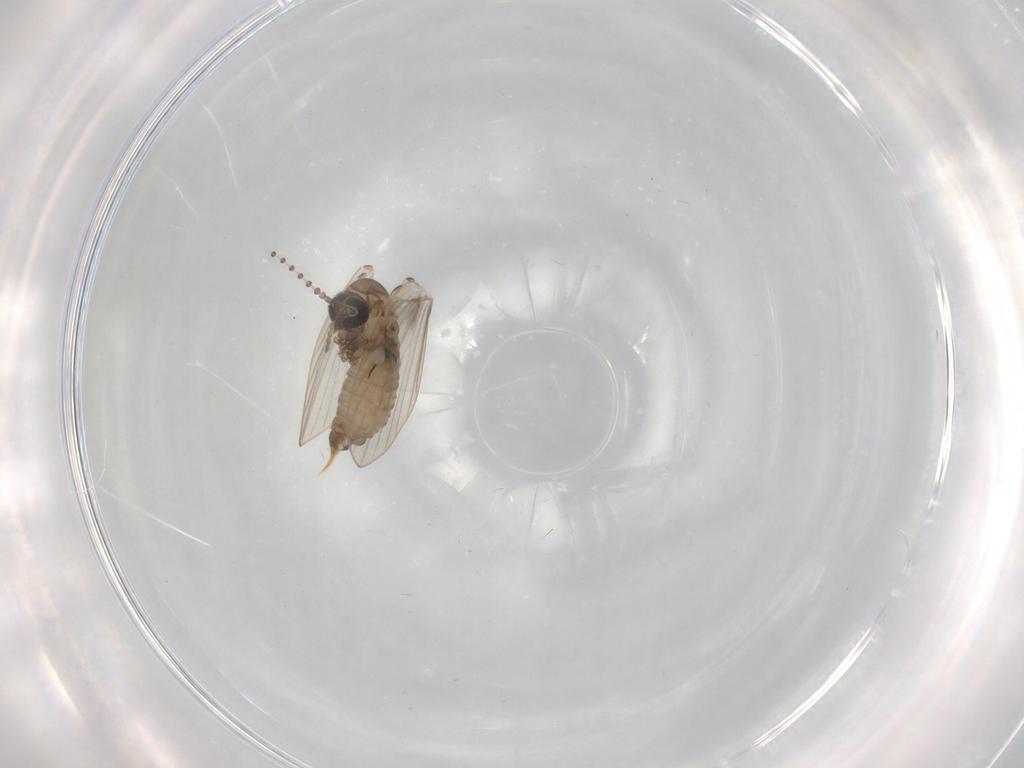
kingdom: Animalia
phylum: Arthropoda
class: Insecta
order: Diptera
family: Psychodidae
